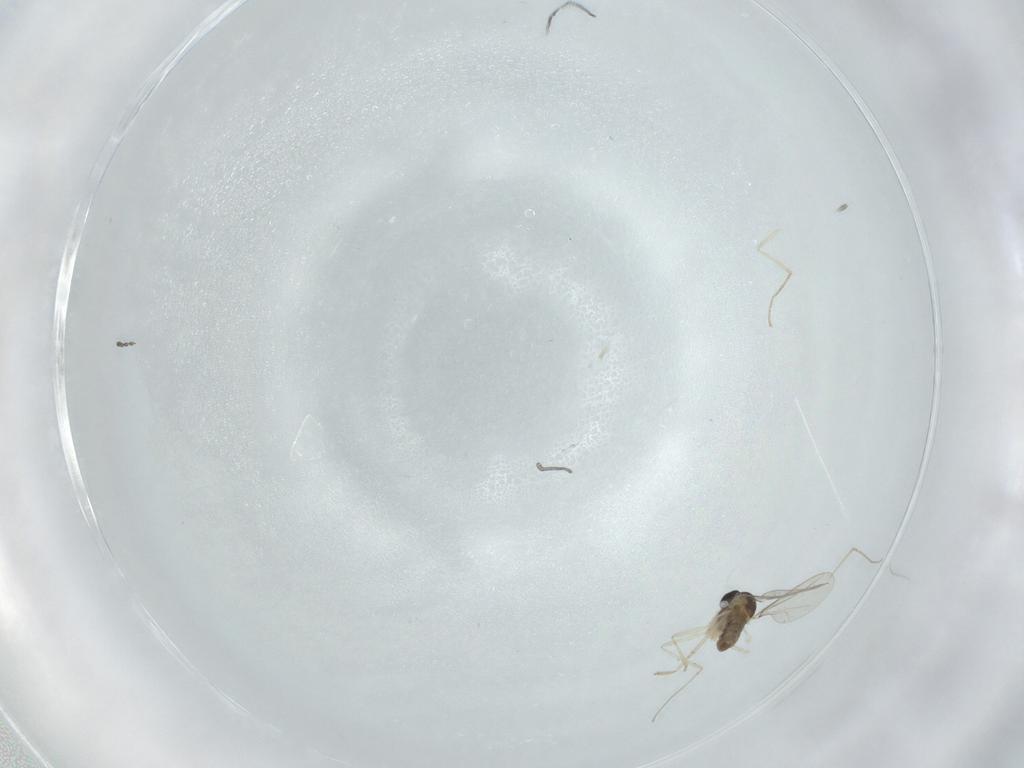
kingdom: Animalia
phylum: Arthropoda
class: Insecta
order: Diptera
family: Cecidomyiidae
